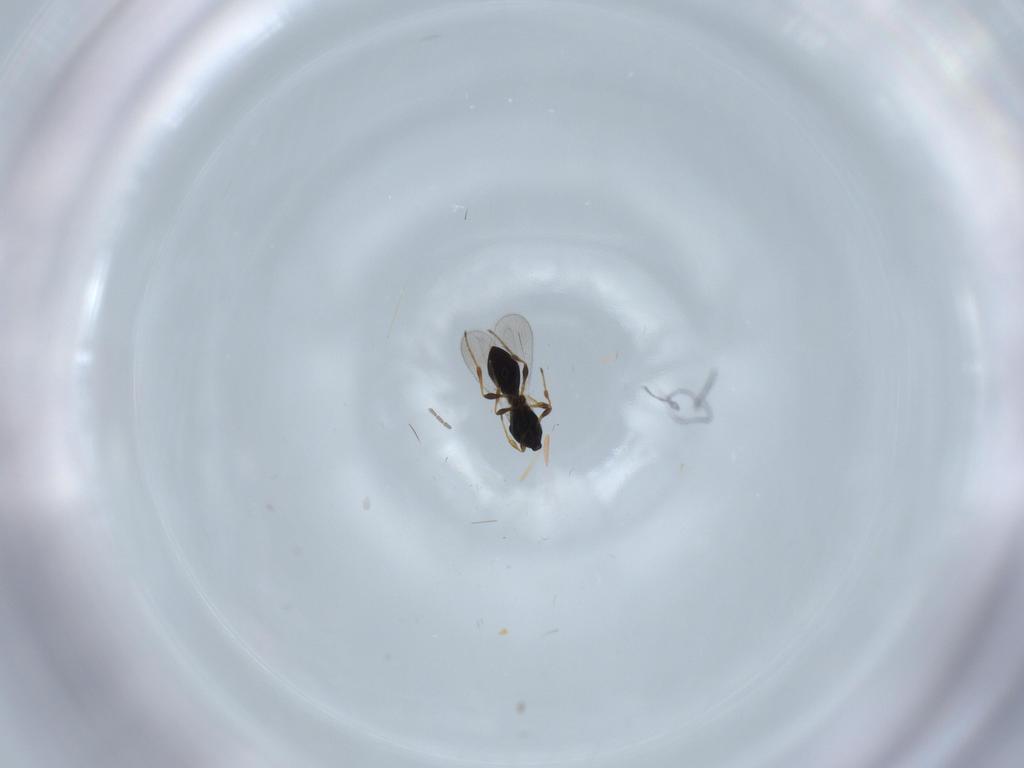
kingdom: Animalia
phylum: Arthropoda
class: Insecta
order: Hymenoptera
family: Platygastridae
